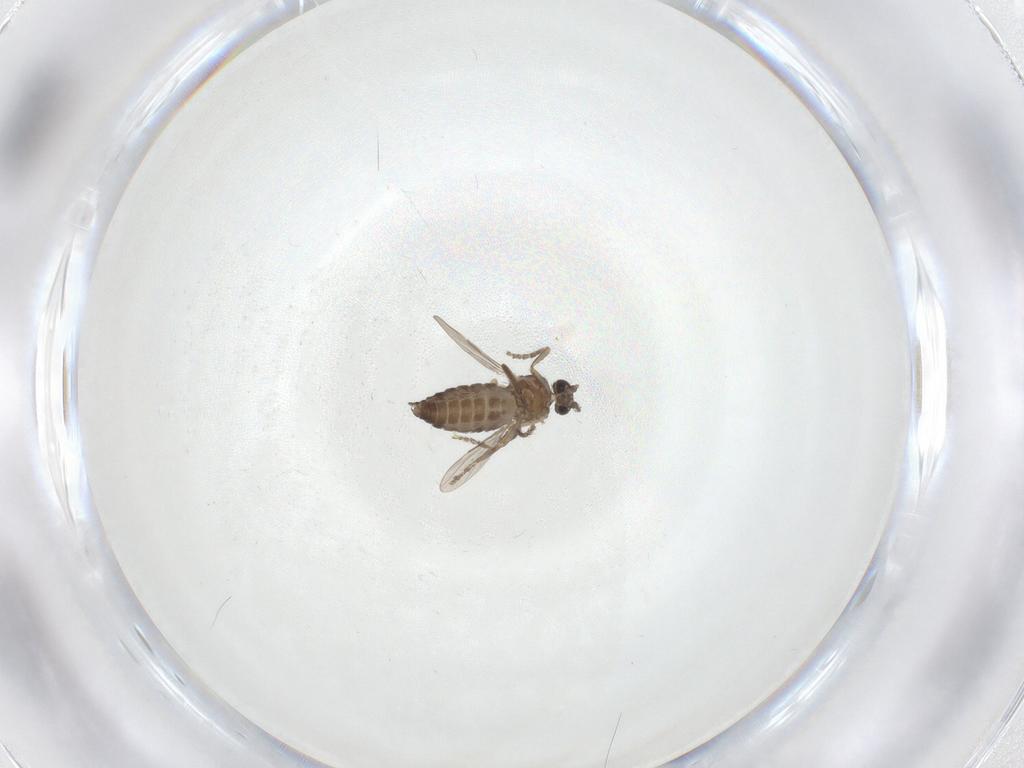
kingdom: Animalia
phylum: Arthropoda
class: Insecta
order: Diptera
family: Ceratopogonidae
